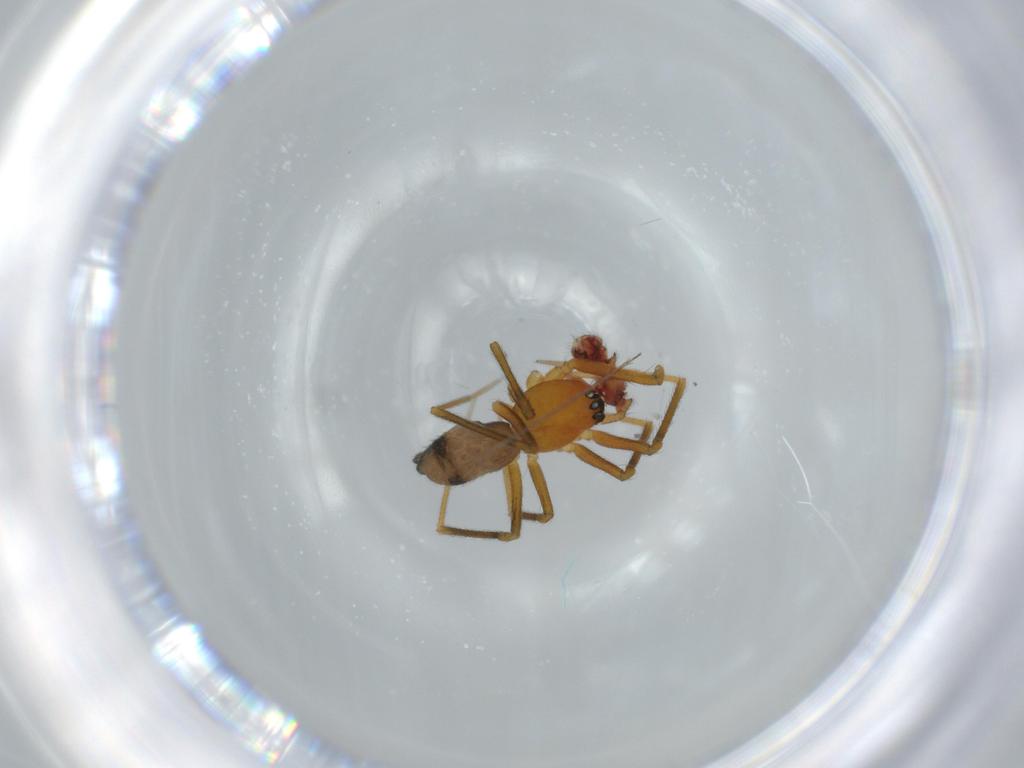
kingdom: Animalia
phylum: Arthropoda
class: Arachnida
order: Araneae
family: Linyphiidae
